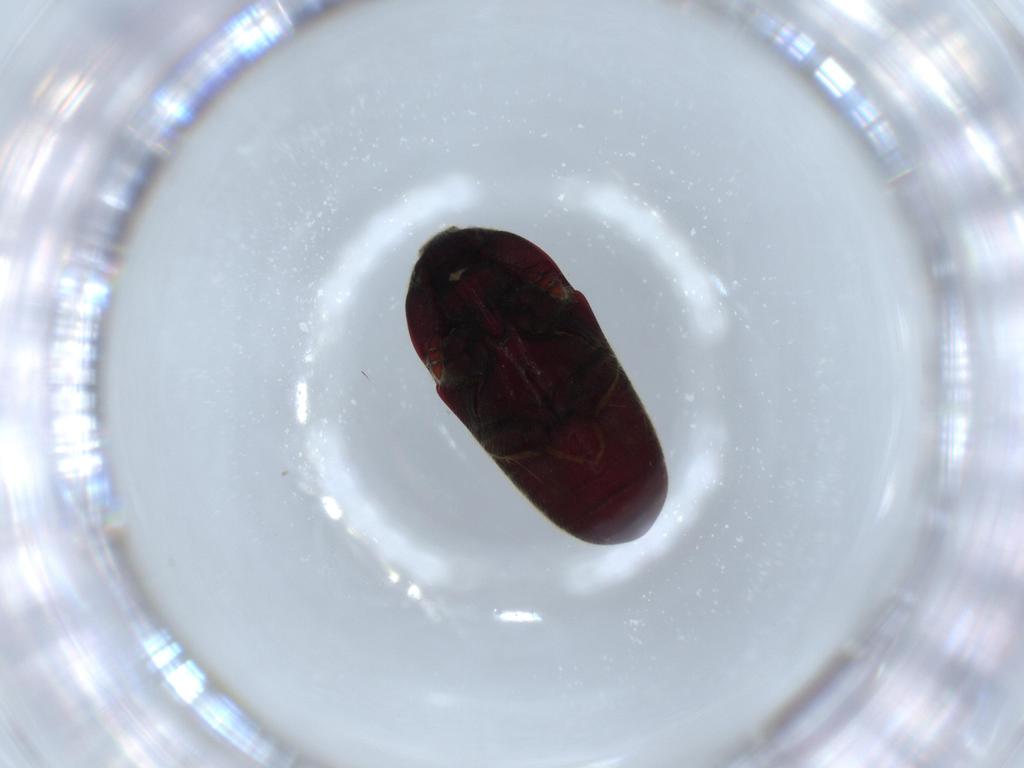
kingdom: Animalia
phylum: Arthropoda
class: Insecta
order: Coleoptera
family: Throscidae
